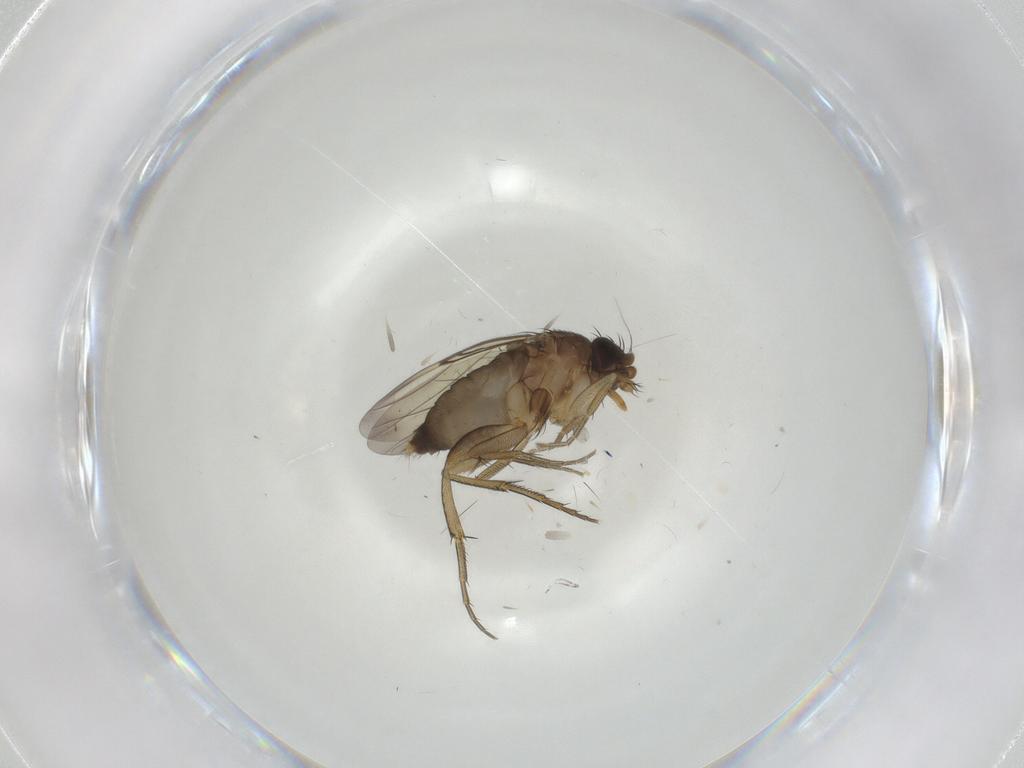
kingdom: Animalia
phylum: Arthropoda
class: Insecta
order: Diptera
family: Phoridae
